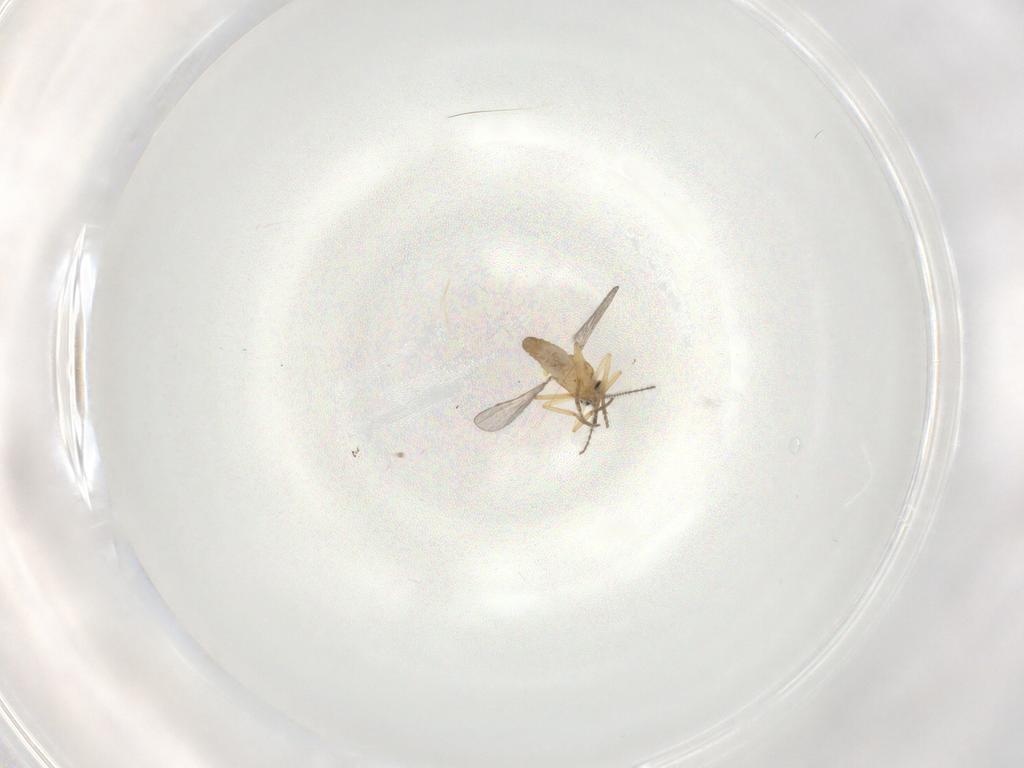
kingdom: Animalia
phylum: Arthropoda
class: Insecta
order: Diptera
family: Ceratopogonidae
